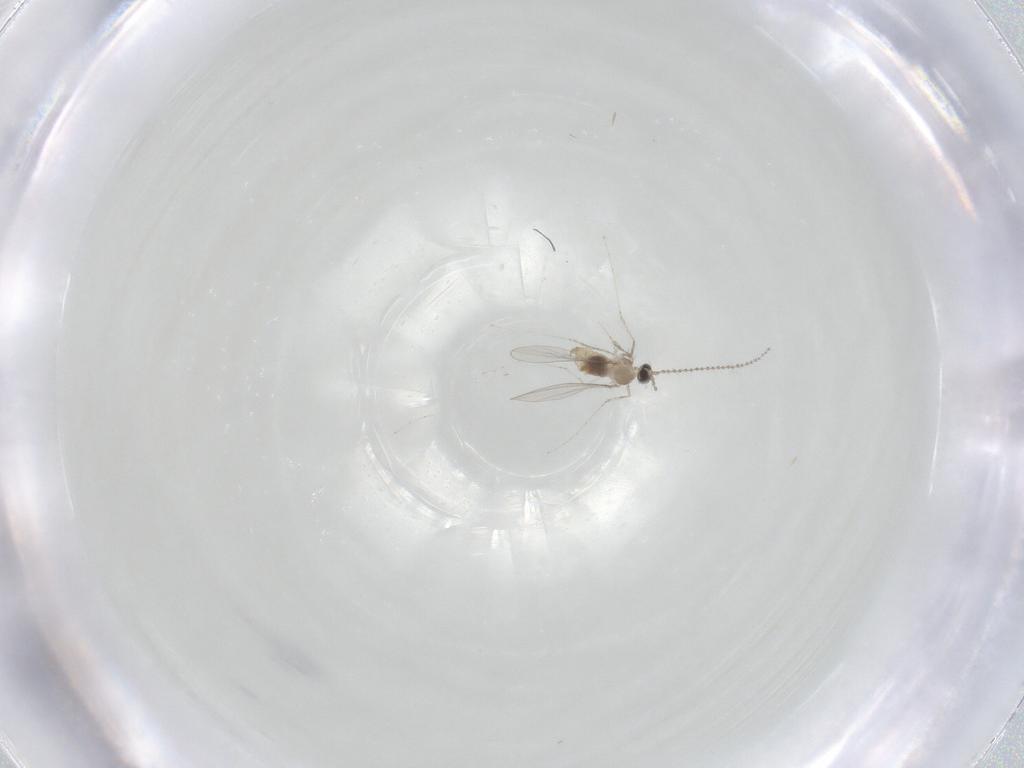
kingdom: Animalia
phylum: Arthropoda
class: Insecta
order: Diptera
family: Cecidomyiidae
